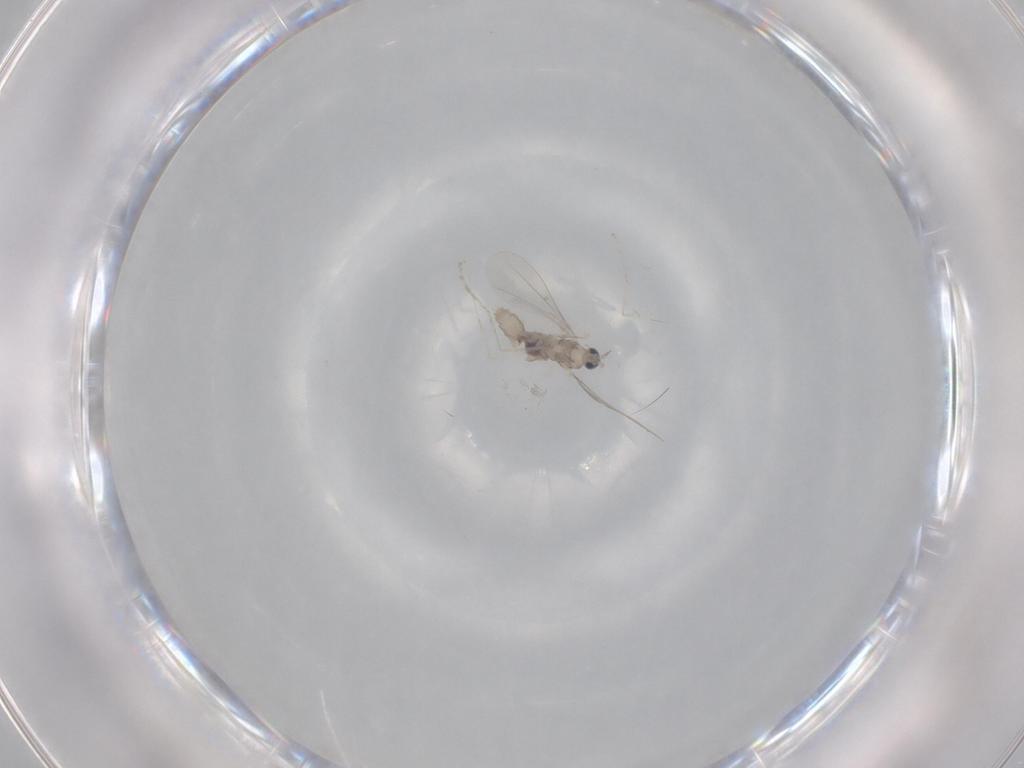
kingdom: Animalia
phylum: Arthropoda
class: Insecta
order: Diptera
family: Cecidomyiidae
